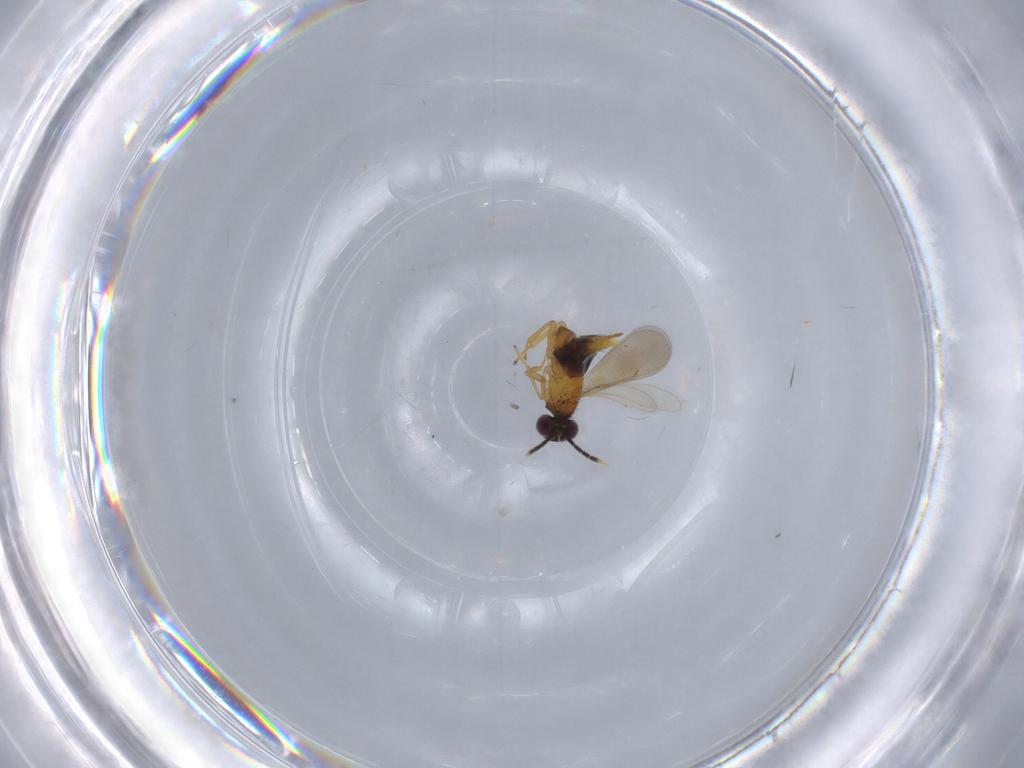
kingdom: Animalia
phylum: Arthropoda
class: Insecta
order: Hymenoptera
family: Aphelinidae
